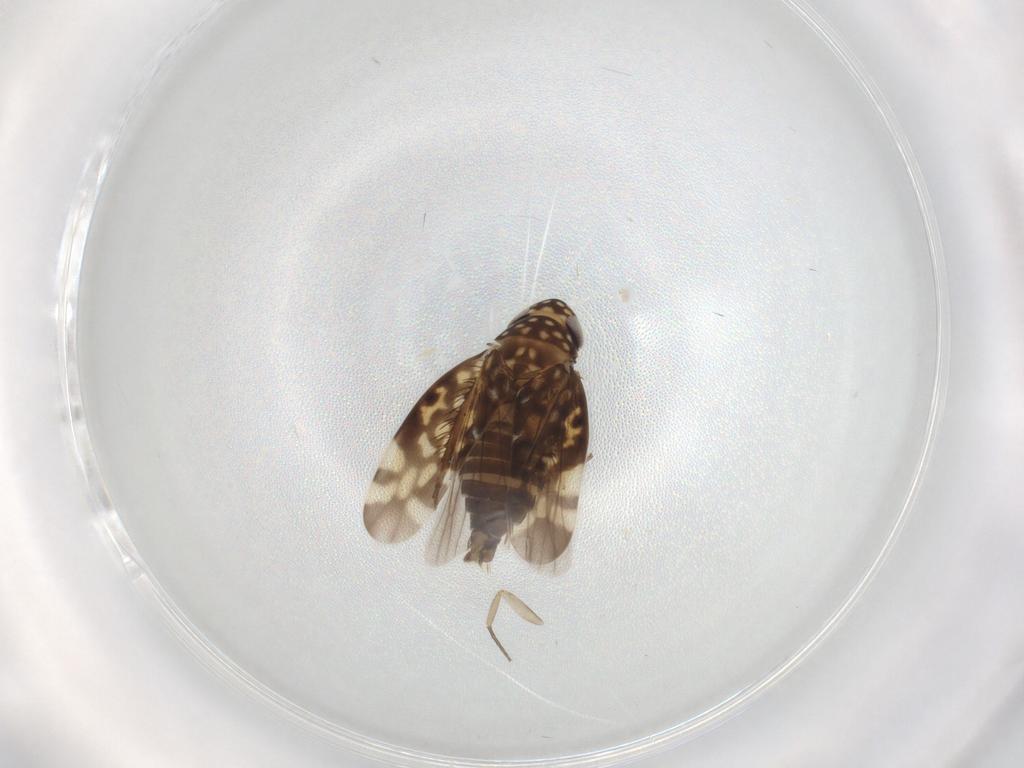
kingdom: Animalia
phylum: Arthropoda
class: Insecta
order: Hemiptera
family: Cicadellidae
